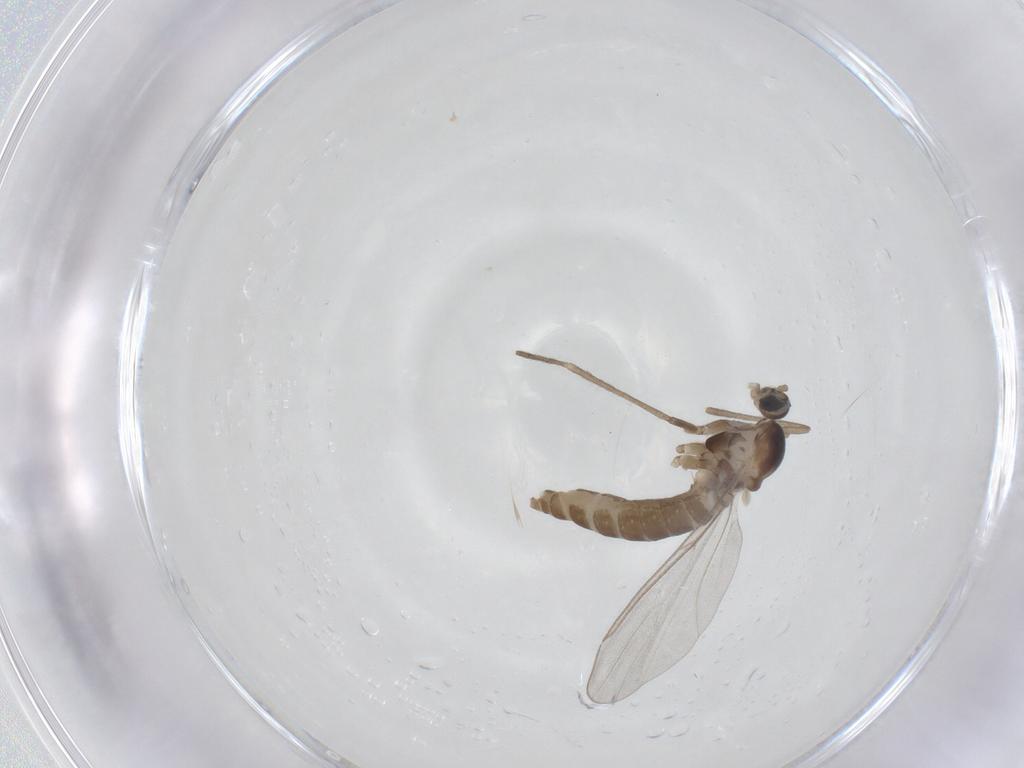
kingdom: Animalia
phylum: Arthropoda
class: Insecta
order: Diptera
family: Cecidomyiidae
